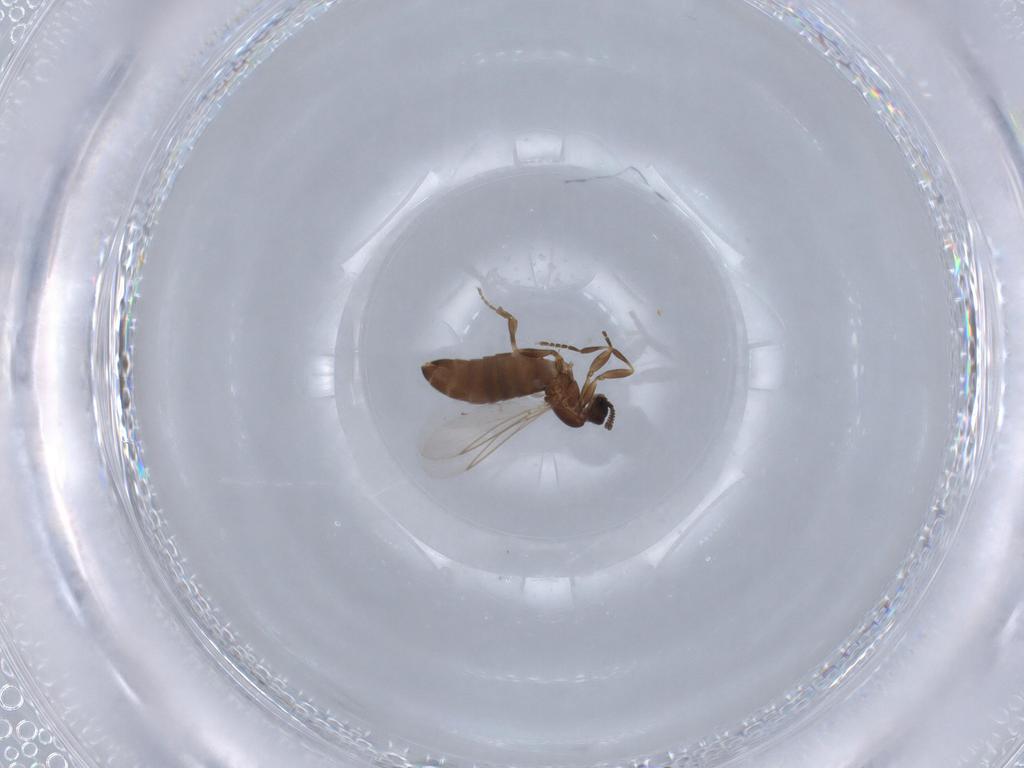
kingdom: Animalia
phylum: Arthropoda
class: Insecta
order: Diptera
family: Scatopsidae
